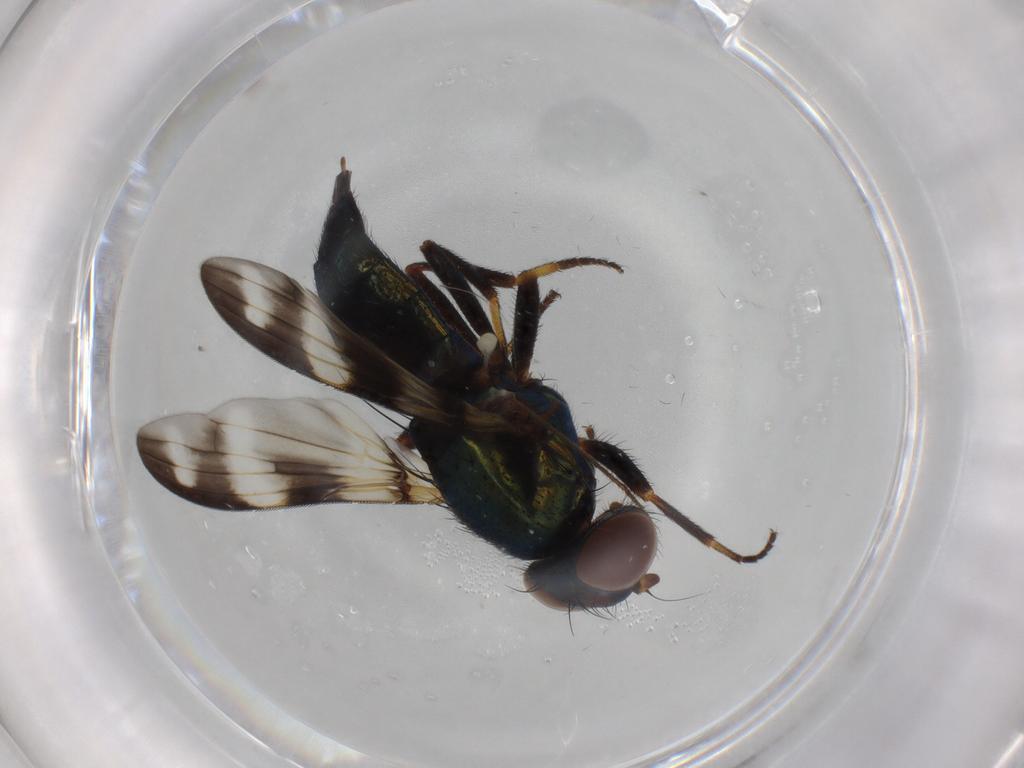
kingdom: Animalia
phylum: Arthropoda
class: Insecta
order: Diptera
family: Ulidiidae
